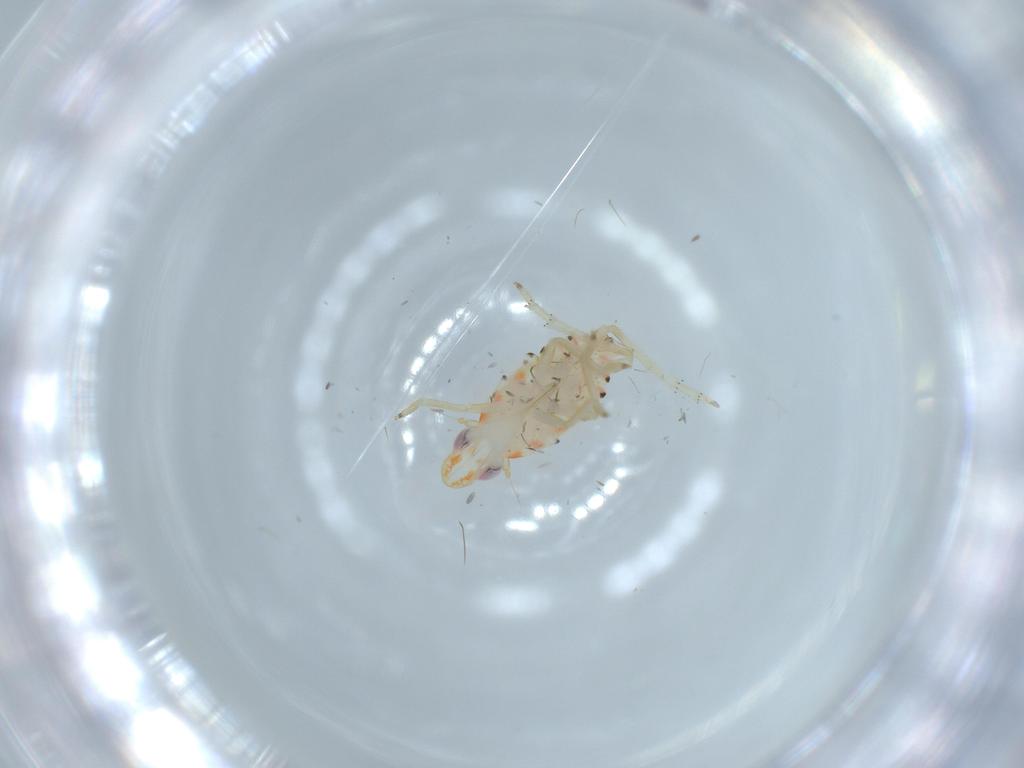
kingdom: Animalia
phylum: Arthropoda
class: Insecta
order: Hemiptera
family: Tropiduchidae
